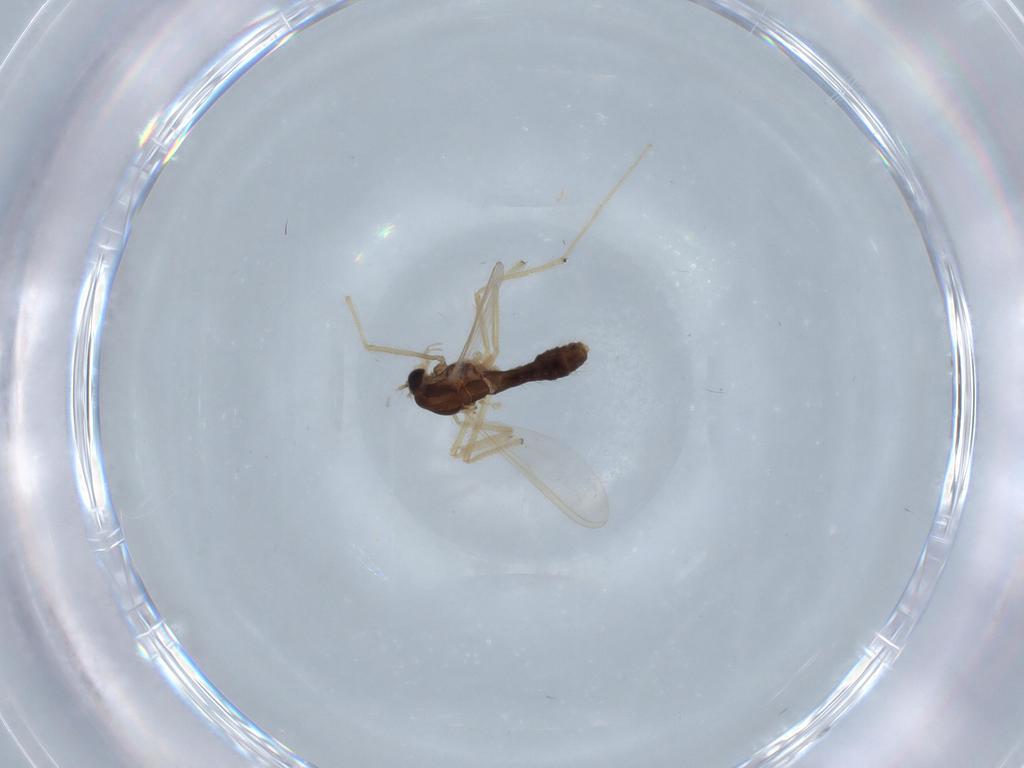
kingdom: Animalia
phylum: Arthropoda
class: Insecta
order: Diptera
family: Chironomidae
